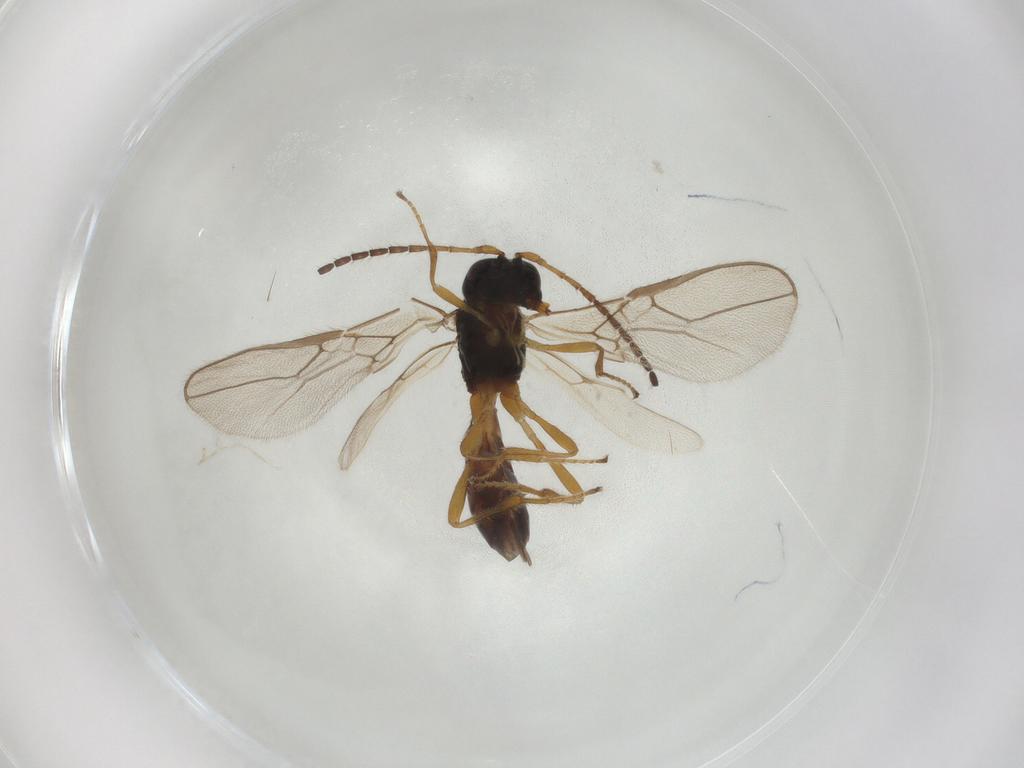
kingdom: Animalia
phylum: Arthropoda
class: Insecta
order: Hymenoptera
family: Braconidae
